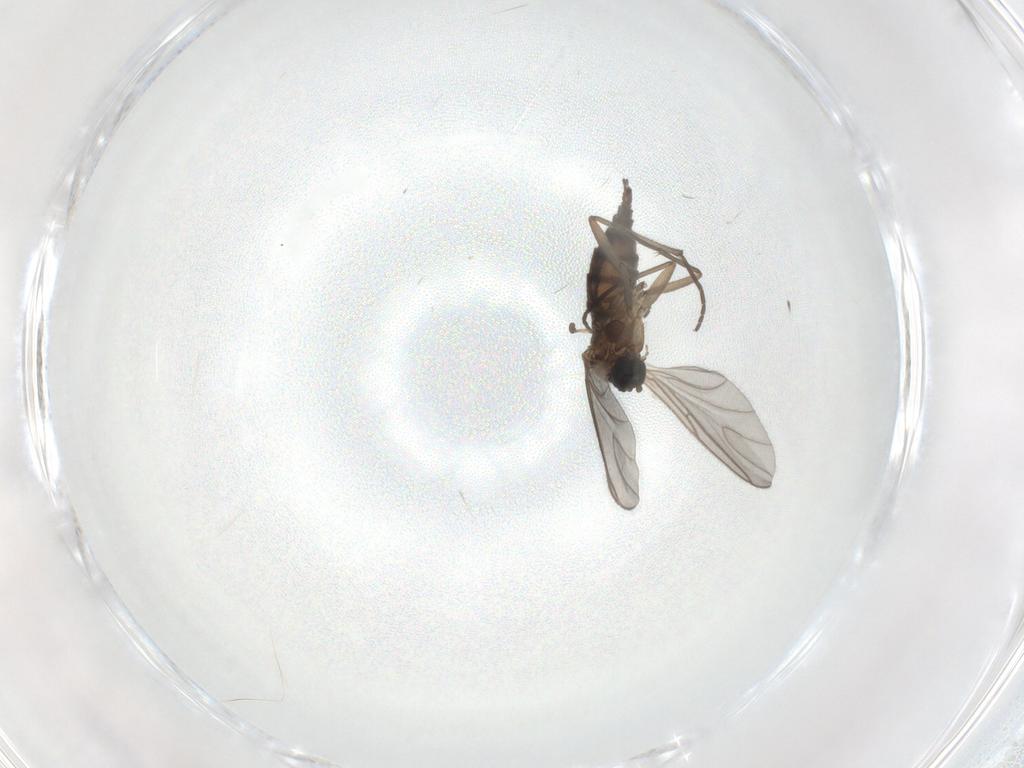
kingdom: Animalia
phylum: Arthropoda
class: Insecta
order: Diptera
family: Sciaridae
